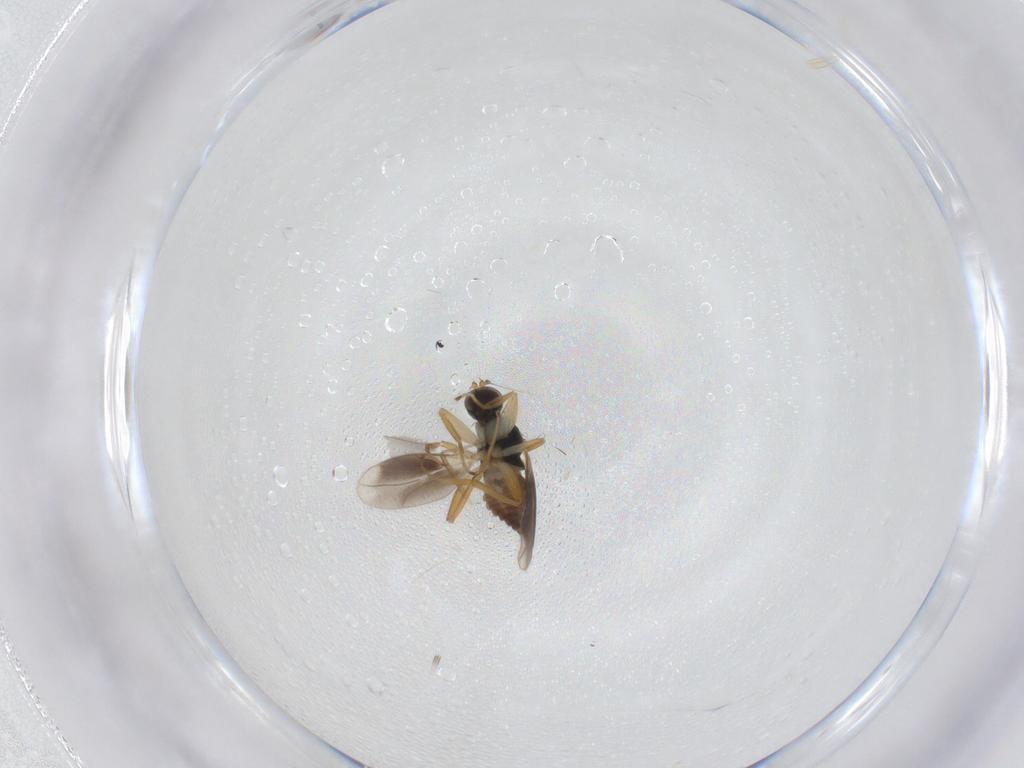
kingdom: Animalia
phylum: Arthropoda
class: Insecta
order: Diptera
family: Hybotidae
